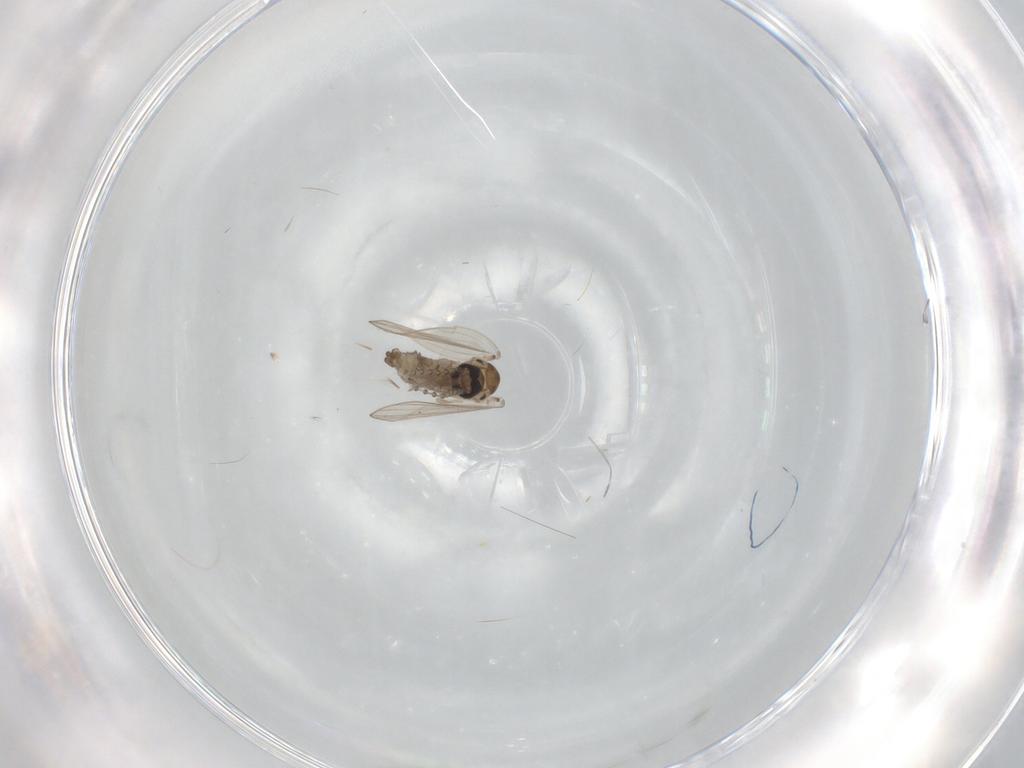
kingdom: Animalia
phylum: Arthropoda
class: Insecta
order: Diptera
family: Psychodidae
